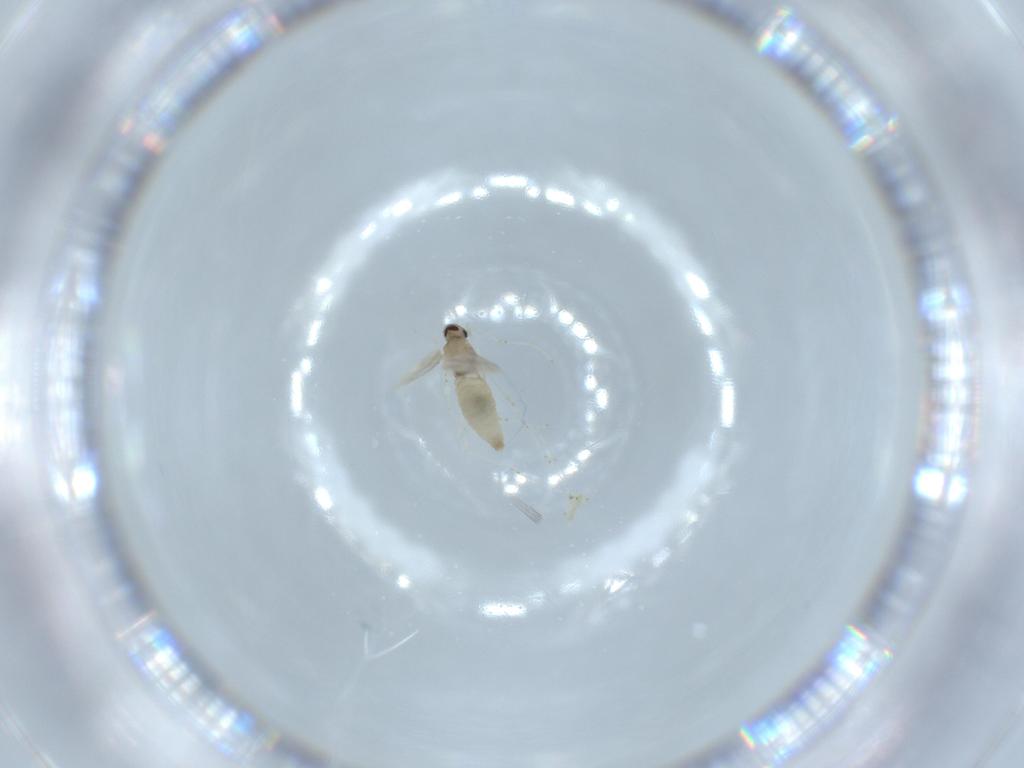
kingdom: Animalia
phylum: Arthropoda
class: Insecta
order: Diptera
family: Cecidomyiidae
